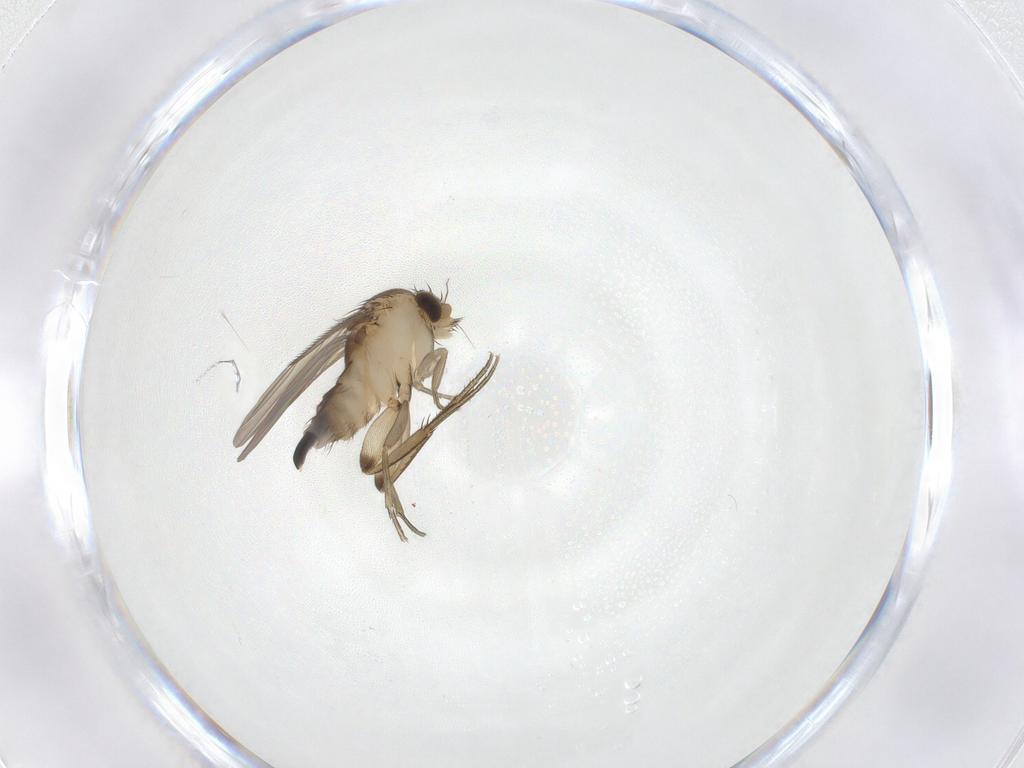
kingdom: Animalia
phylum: Arthropoda
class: Insecta
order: Diptera
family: Phoridae
